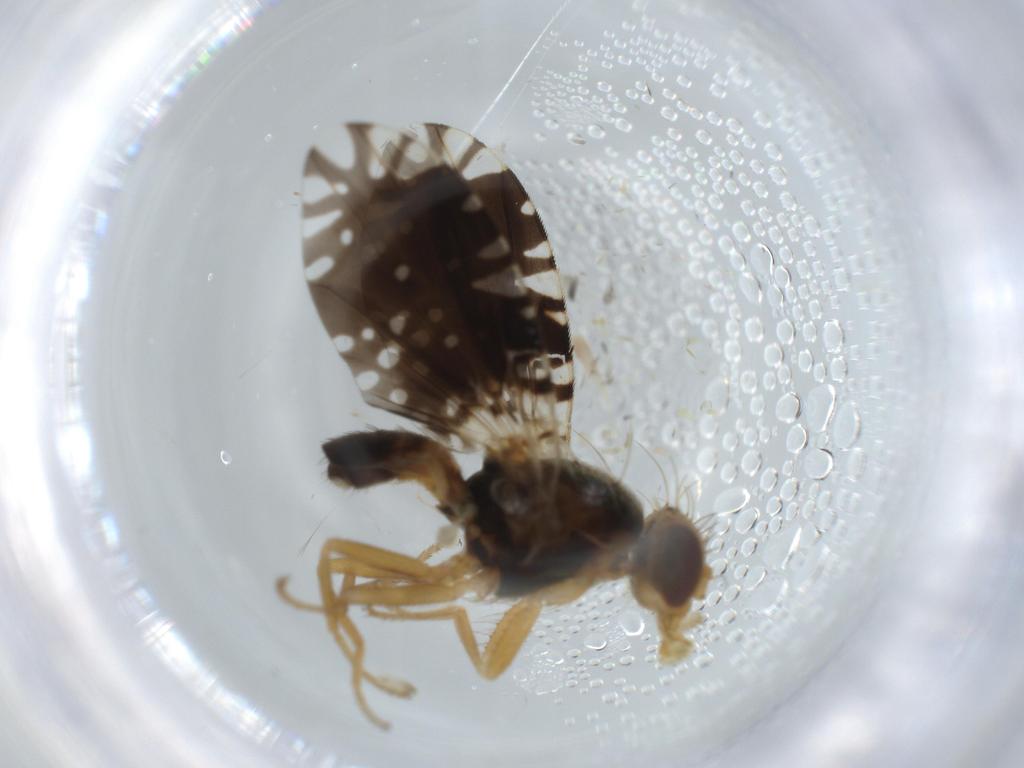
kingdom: Animalia
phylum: Arthropoda
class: Insecta
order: Diptera
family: Tephritidae
